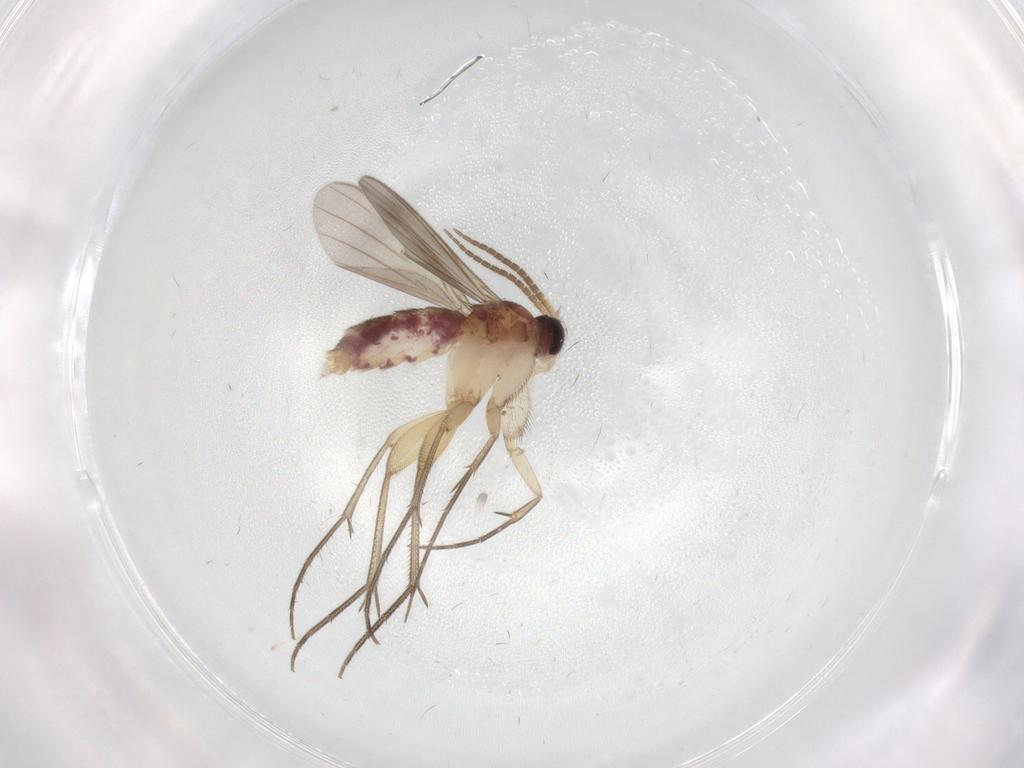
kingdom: Animalia
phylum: Arthropoda
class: Insecta
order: Diptera
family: Mycetophilidae
